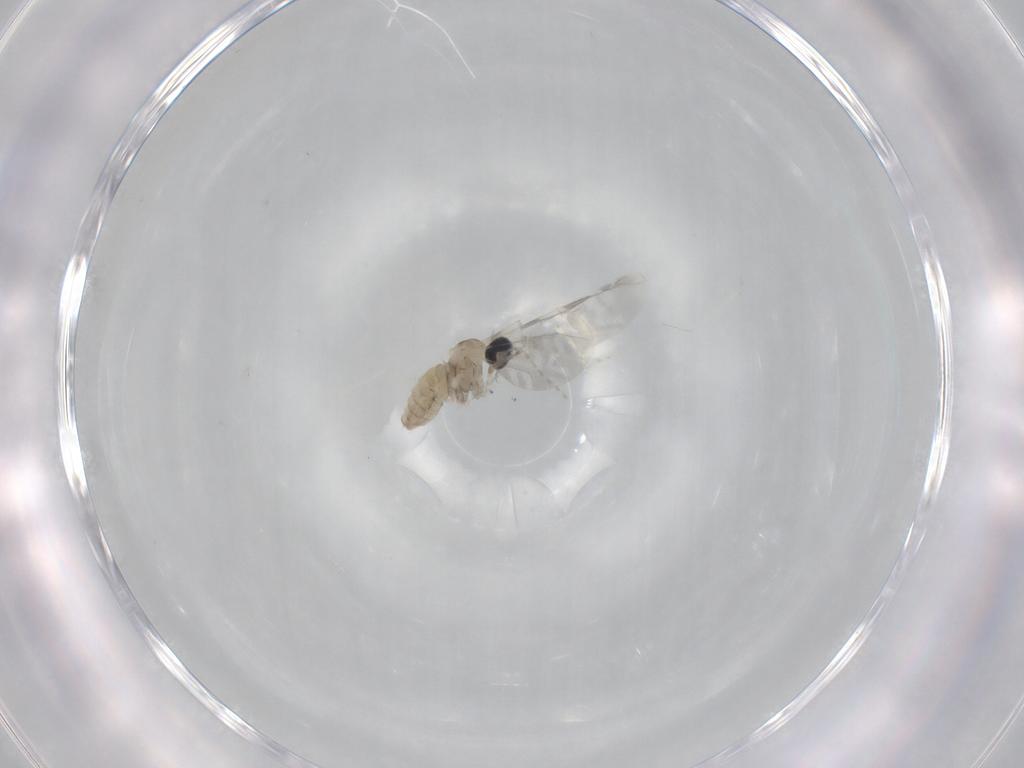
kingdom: Animalia
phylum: Arthropoda
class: Insecta
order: Diptera
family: Cecidomyiidae
